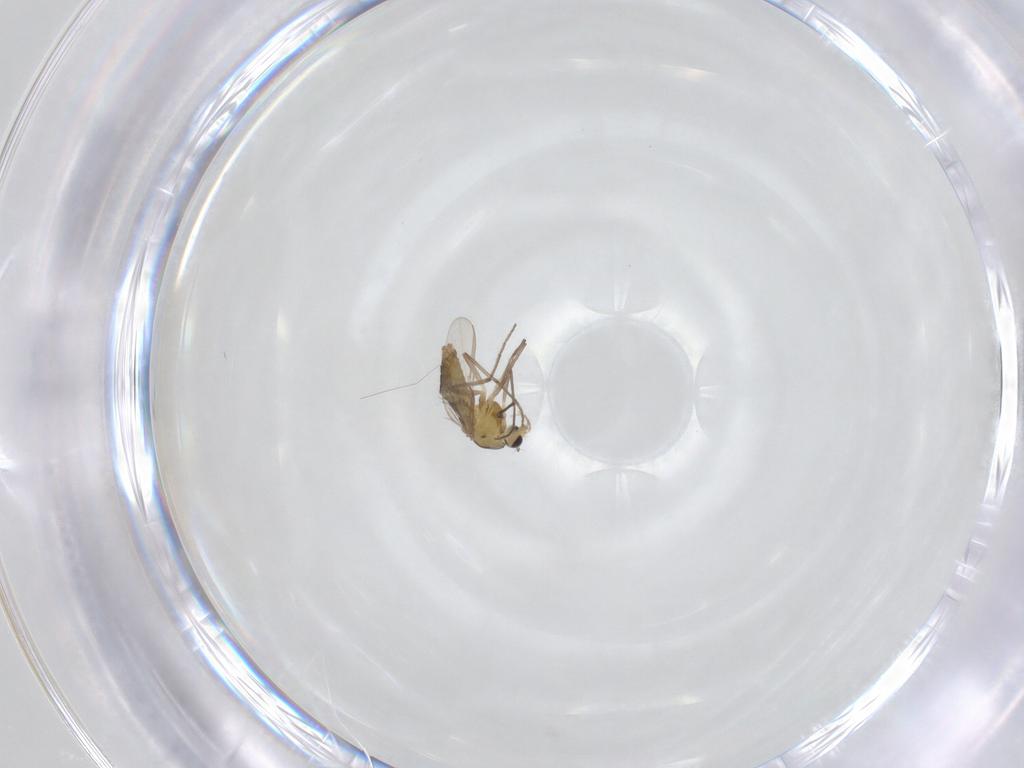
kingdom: Animalia
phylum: Arthropoda
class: Insecta
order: Diptera
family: Chironomidae
